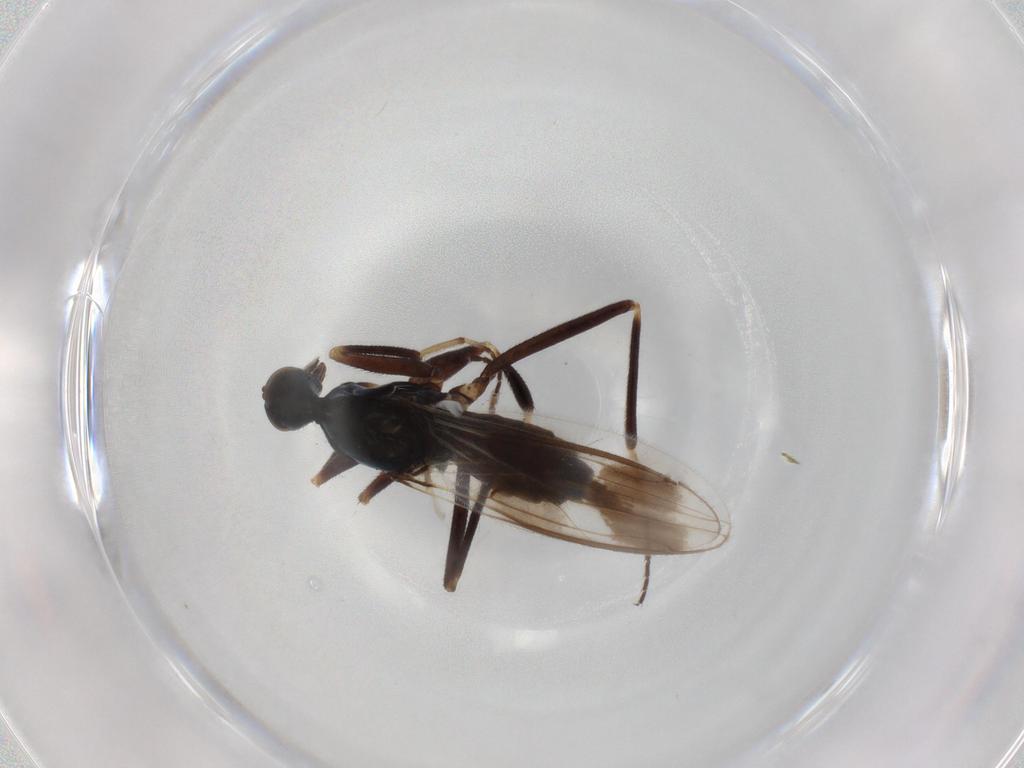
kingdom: Animalia
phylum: Arthropoda
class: Insecta
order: Diptera
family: Hybotidae
